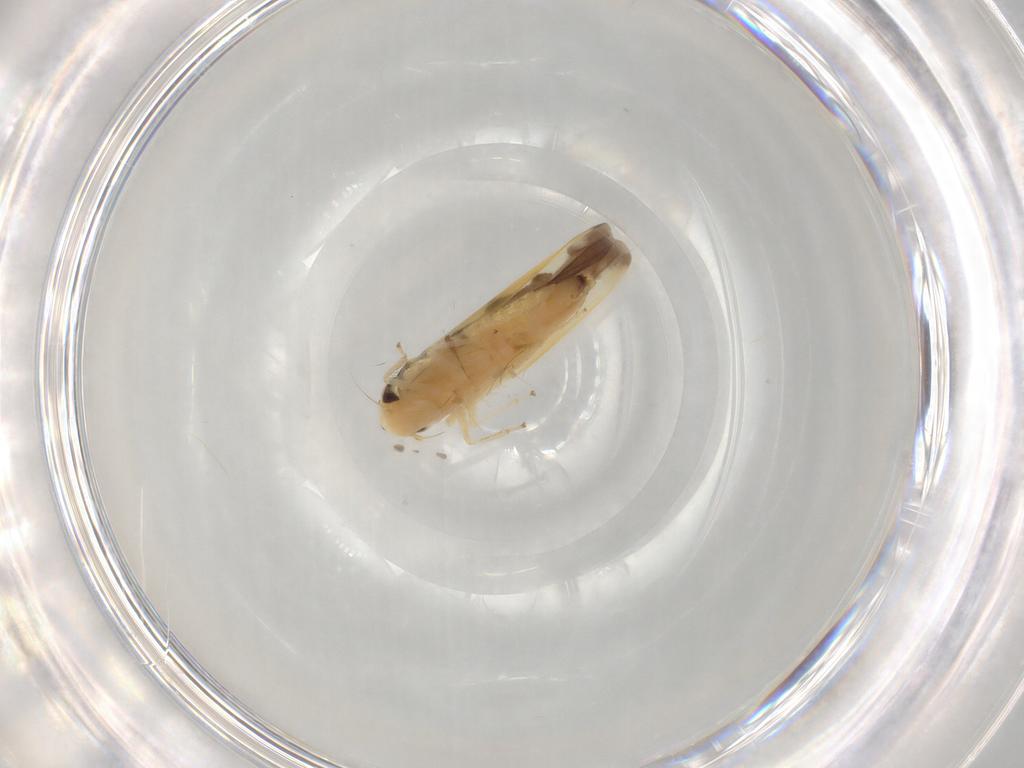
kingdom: Animalia
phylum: Arthropoda
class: Insecta
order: Hemiptera
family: Cicadellidae
